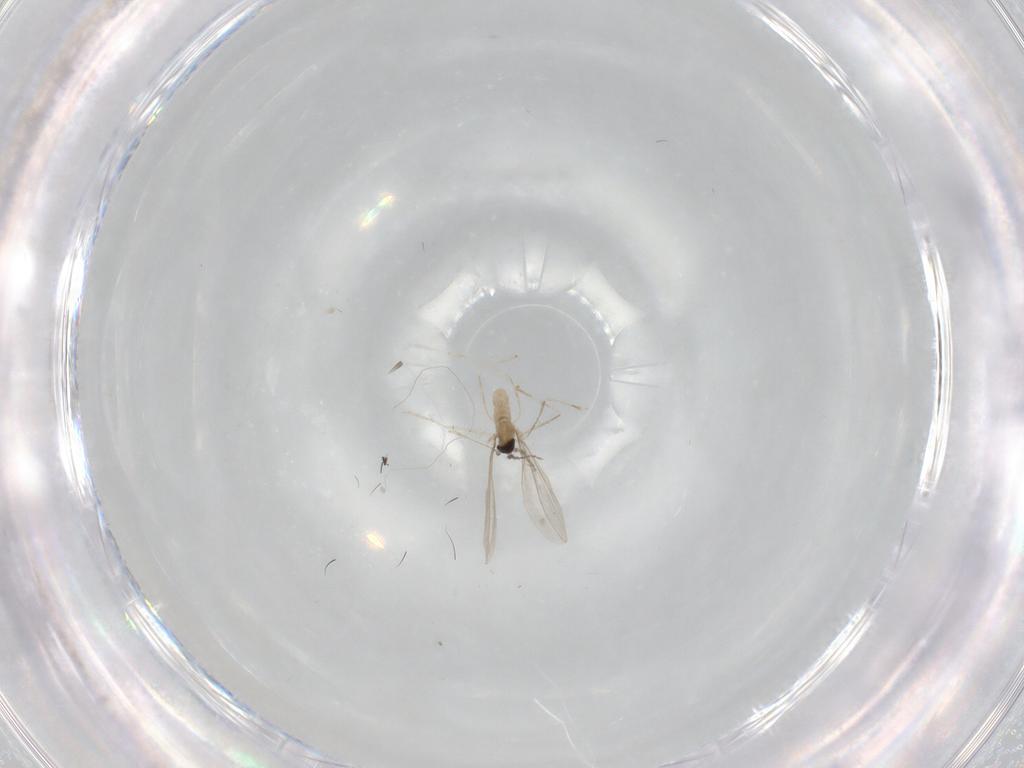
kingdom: Animalia
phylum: Arthropoda
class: Insecta
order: Diptera
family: Cecidomyiidae
